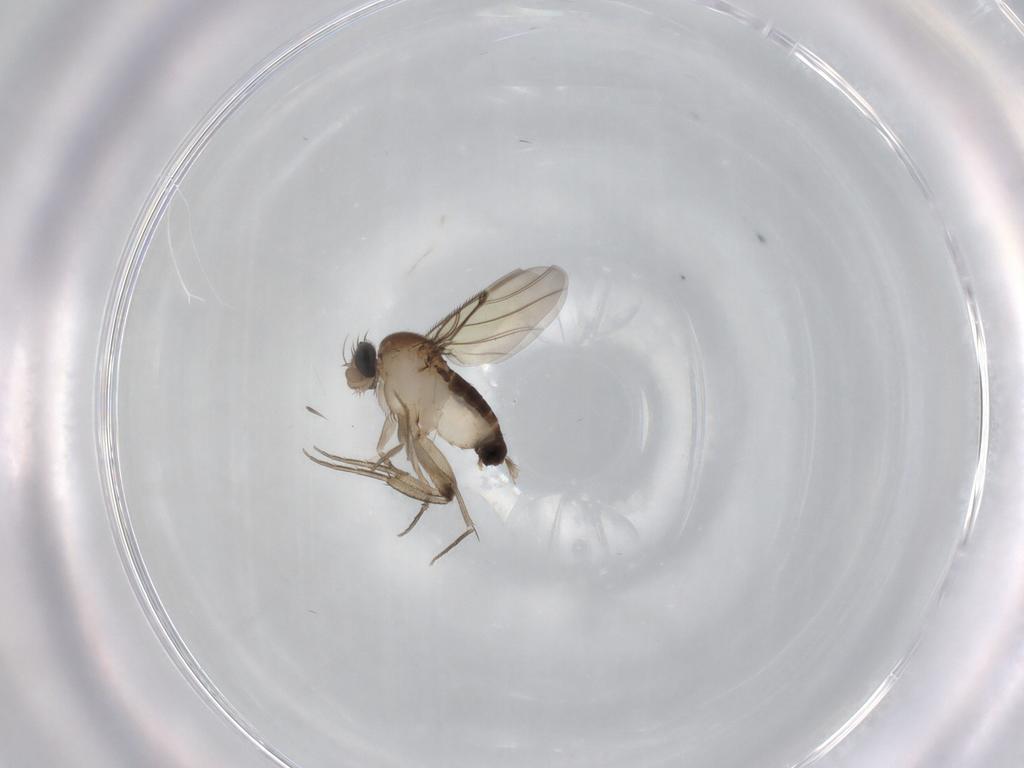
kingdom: Animalia
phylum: Arthropoda
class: Insecta
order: Diptera
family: Sciaridae
